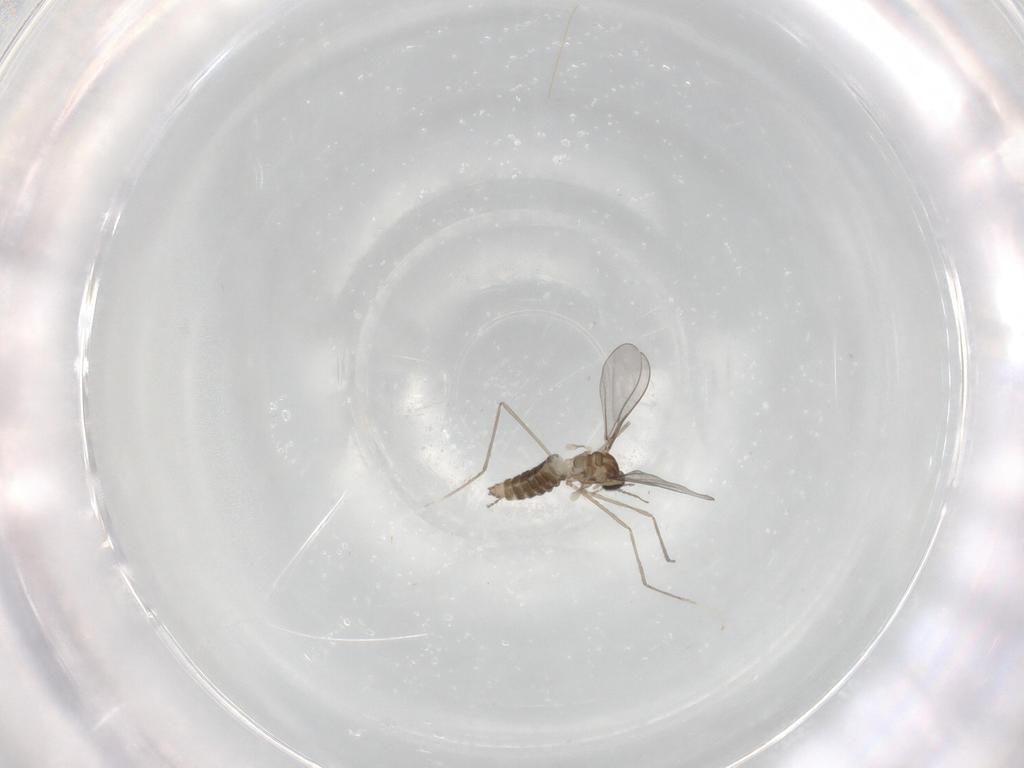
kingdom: Animalia
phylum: Arthropoda
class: Insecta
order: Diptera
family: Cecidomyiidae
